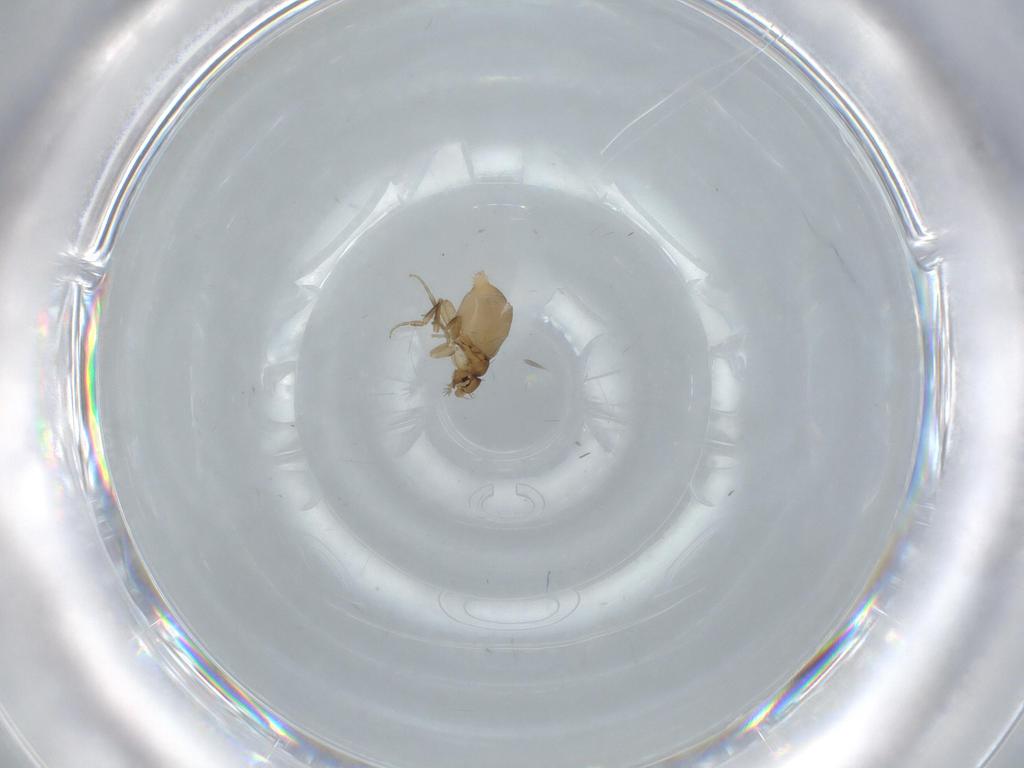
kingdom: Animalia
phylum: Arthropoda
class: Insecta
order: Diptera
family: Phoridae
